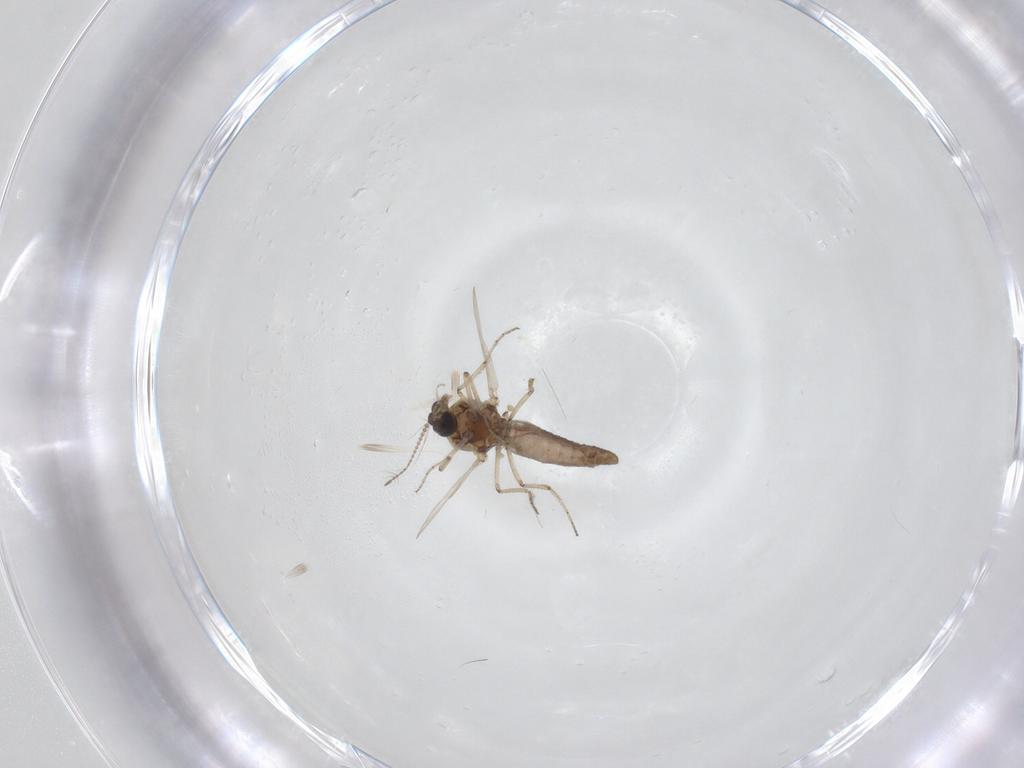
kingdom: Animalia
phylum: Arthropoda
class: Insecta
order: Diptera
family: Ceratopogonidae
